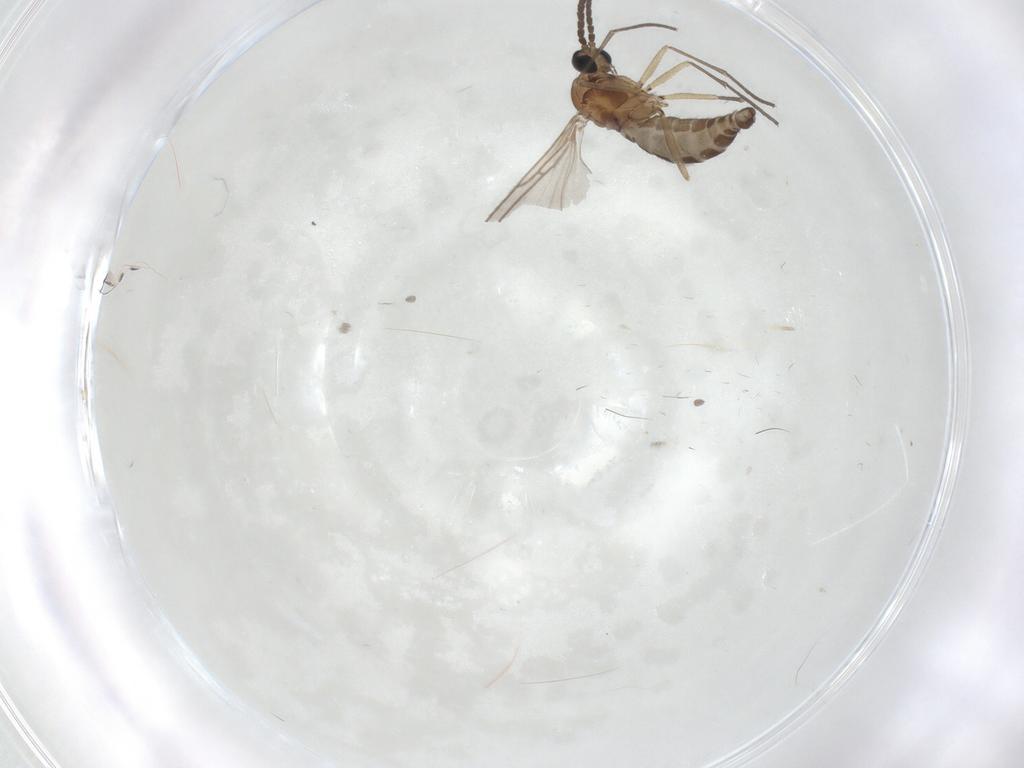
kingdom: Animalia
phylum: Arthropoda
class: Insecta
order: Diptera
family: Sciaridae
